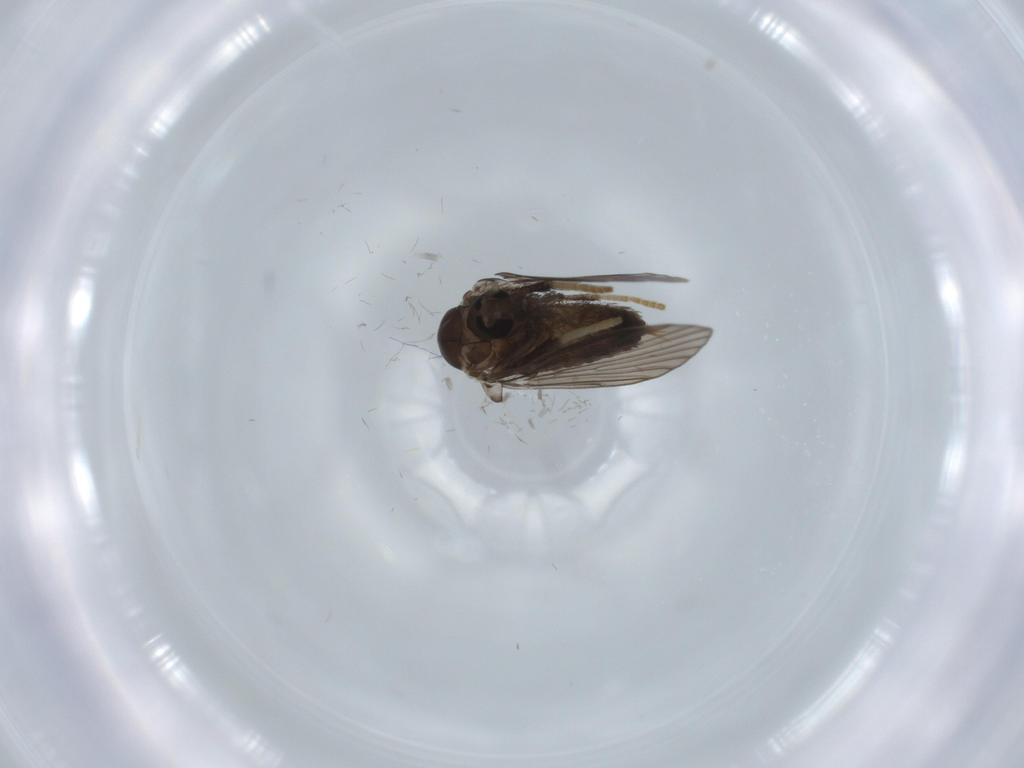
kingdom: Animalia
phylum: Arthropoda
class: Insecta
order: Diptera
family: Psychodidae
